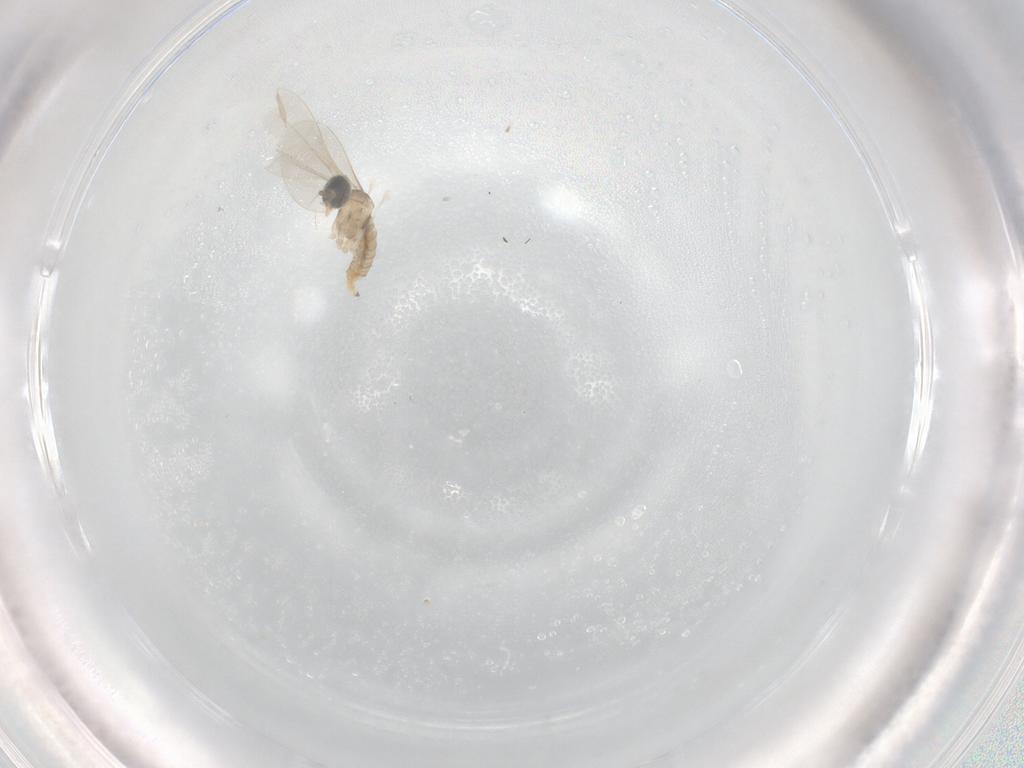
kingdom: Animalia
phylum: Arthropoda
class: Insecta
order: Diptera
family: Cecidomyiidae
